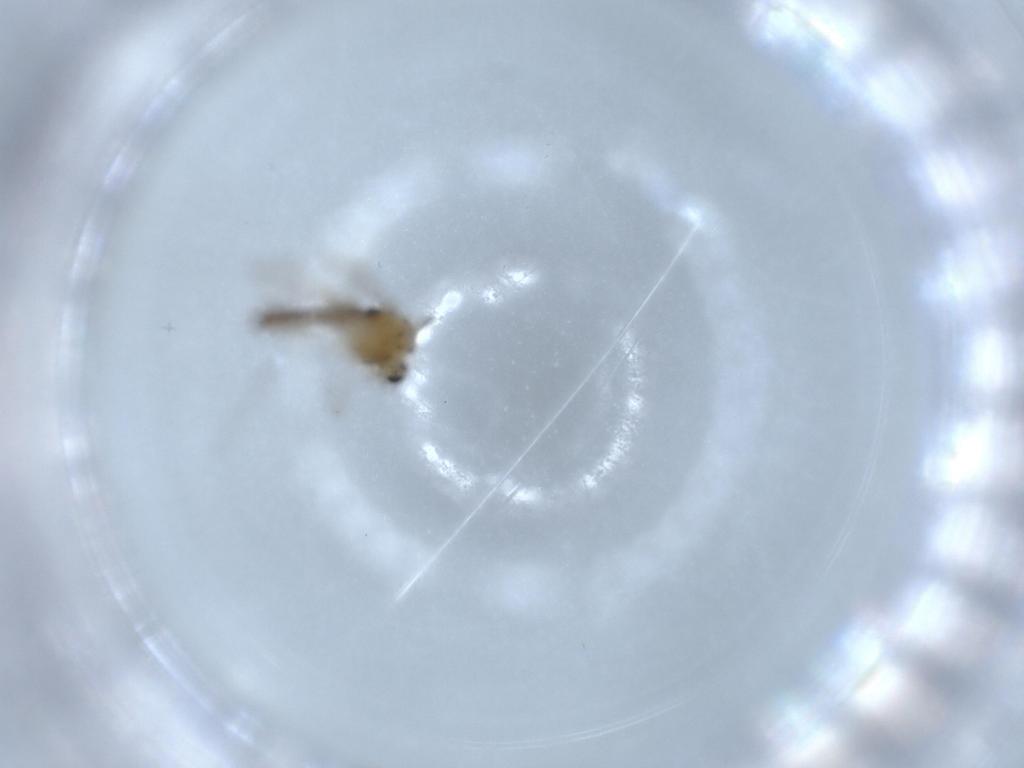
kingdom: Animalia
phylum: Arthropoda
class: Insecta
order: Diptera
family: Chironomidae
